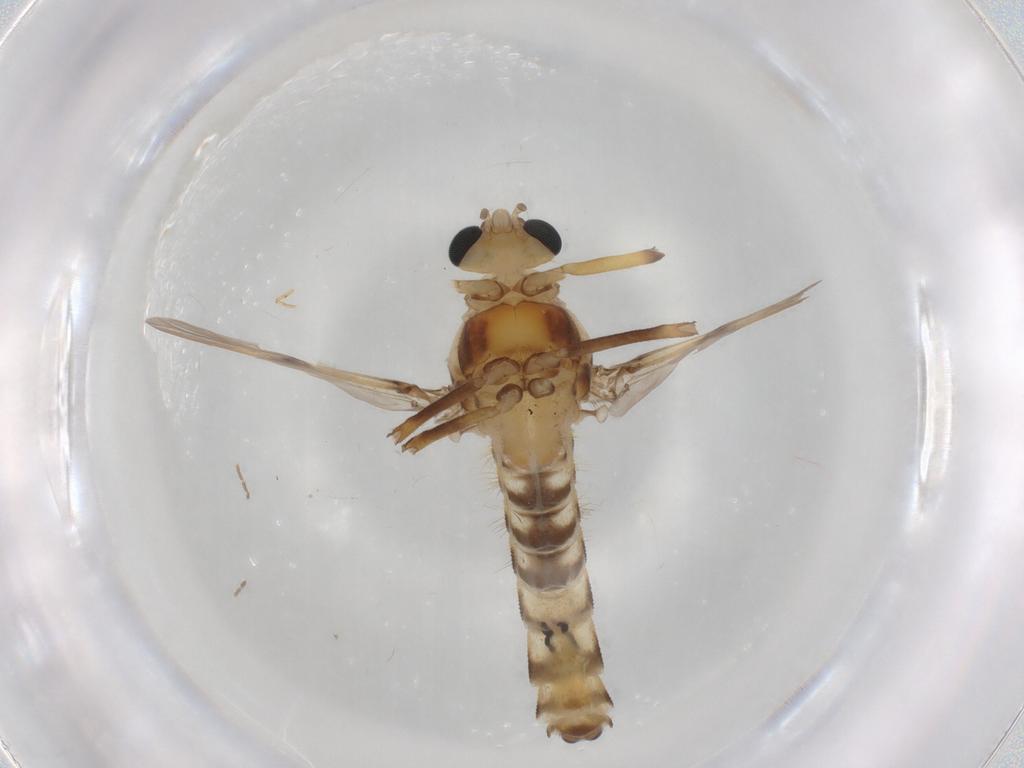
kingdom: Animalia
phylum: Arthropoda
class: Insecta
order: Diptera
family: Chironomidae
